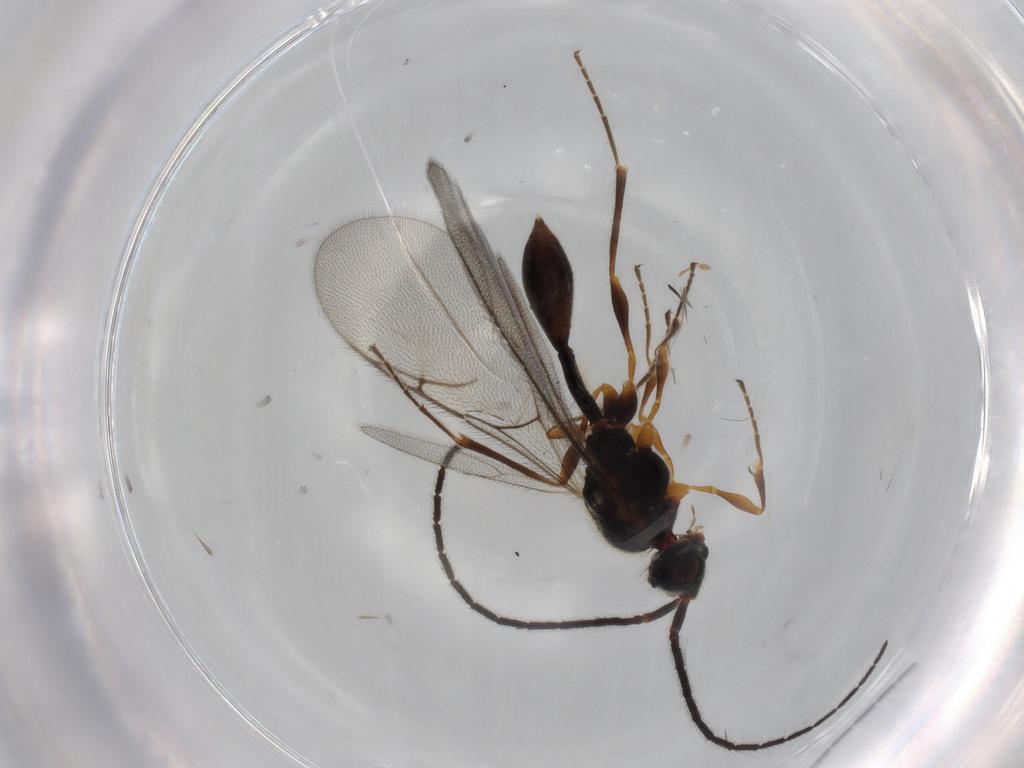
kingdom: Animalia
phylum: Arthropoda
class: Insecta
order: Hymenoptera
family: Diapriidae
